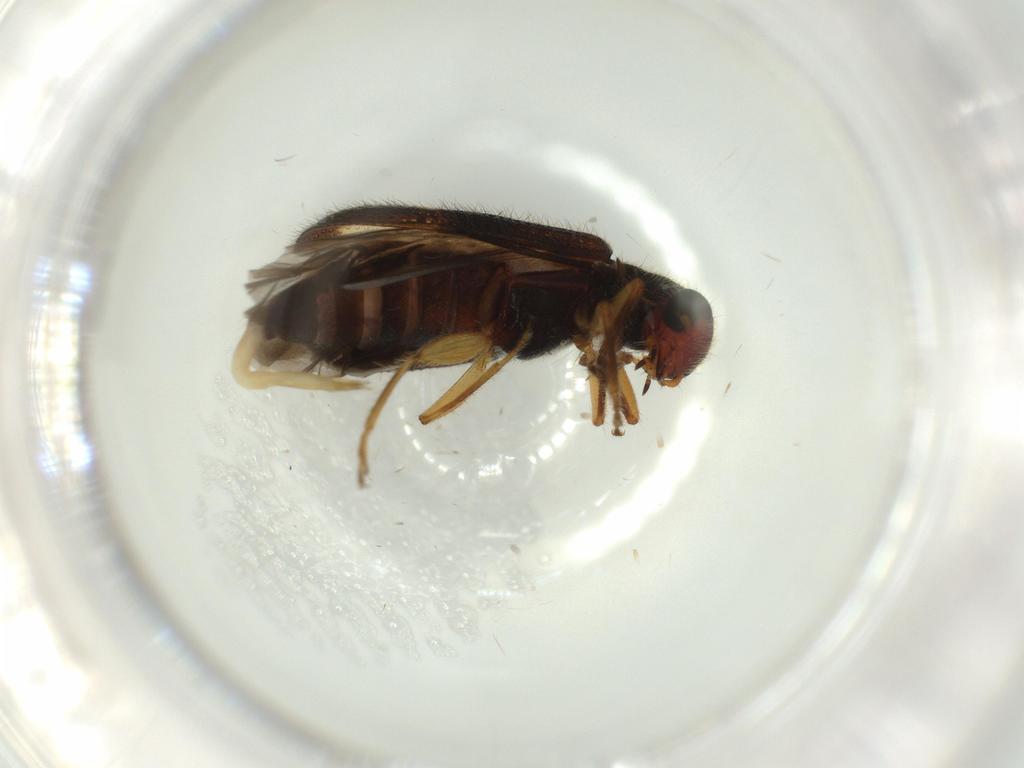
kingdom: Animalia
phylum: Arthropoda
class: Insecta
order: Coleoptera
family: Cleridae
